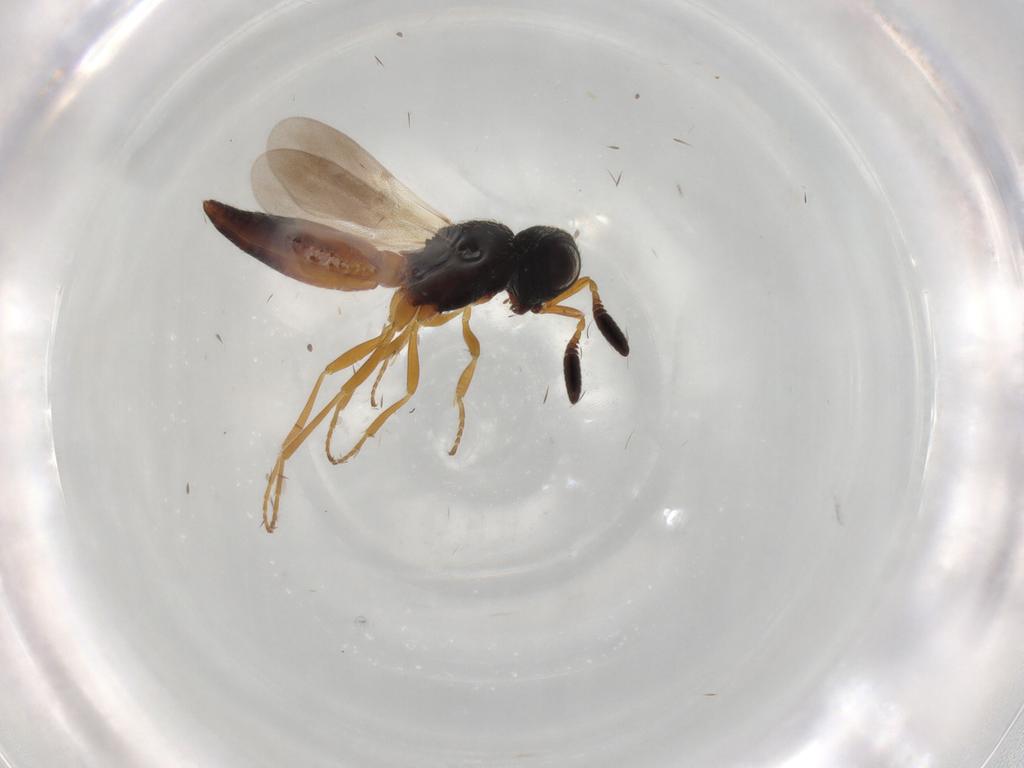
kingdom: Animalia
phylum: Arthropoda
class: Insecta
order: Hymenoptera
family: Scelionidae
